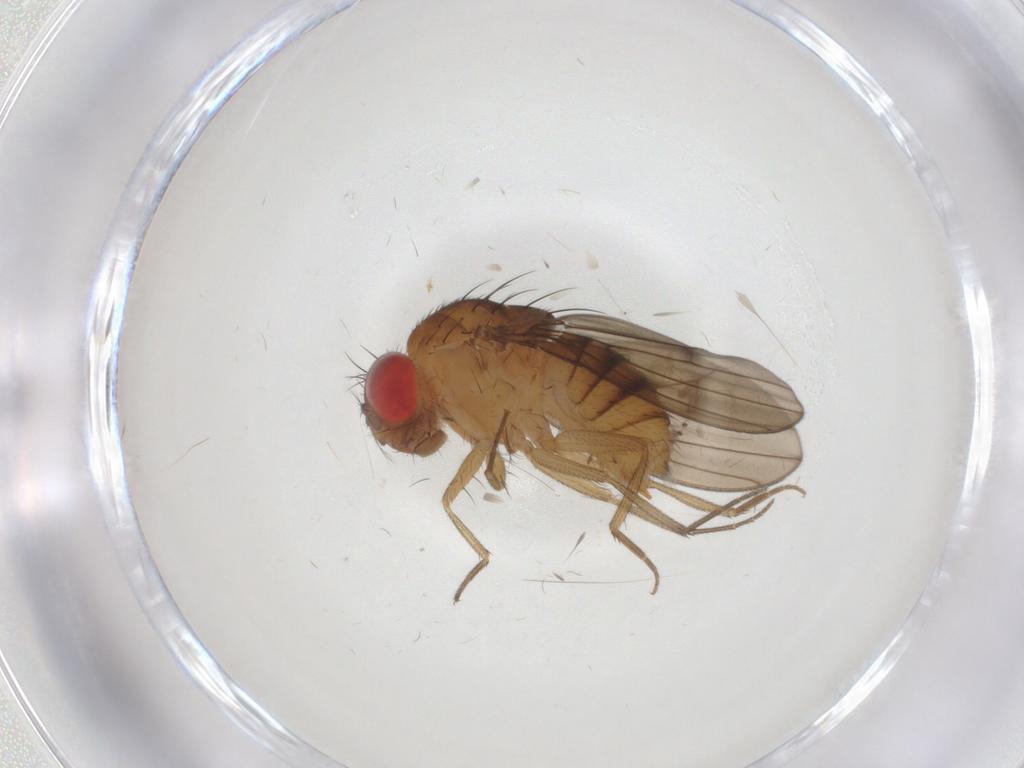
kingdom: Animalia
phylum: Arthropoda
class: Insecta
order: Diptera
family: Drosophilidae
